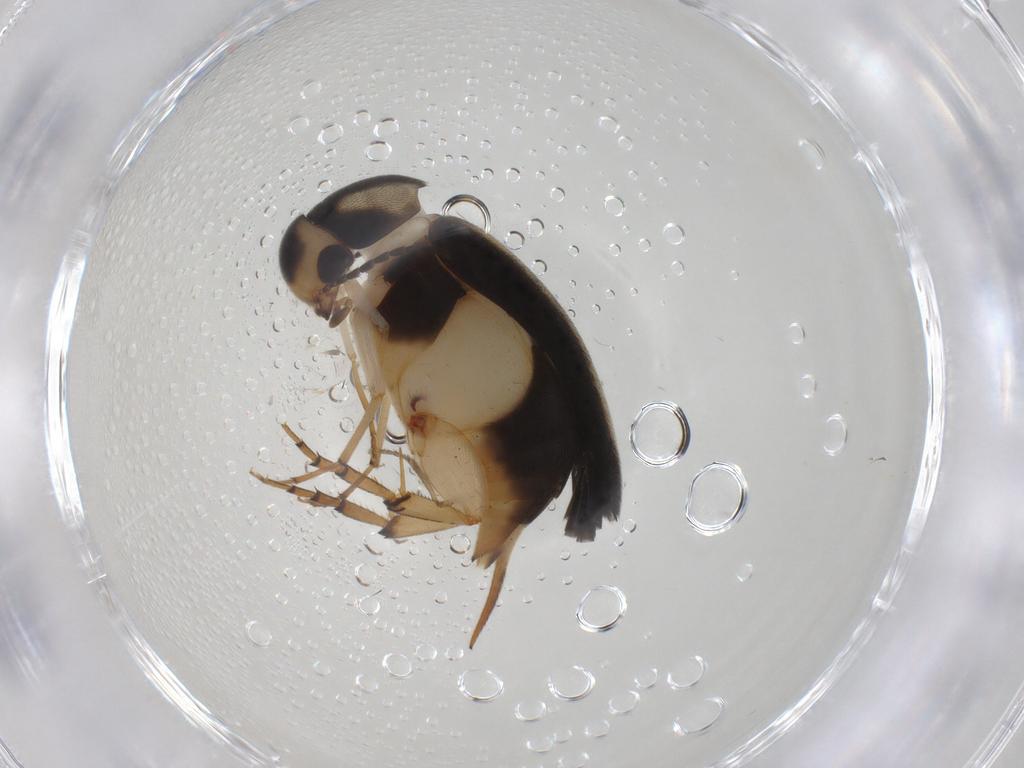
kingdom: Animalia
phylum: Arthropoda
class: Insecta
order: Coleoptera
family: Mordellidae
